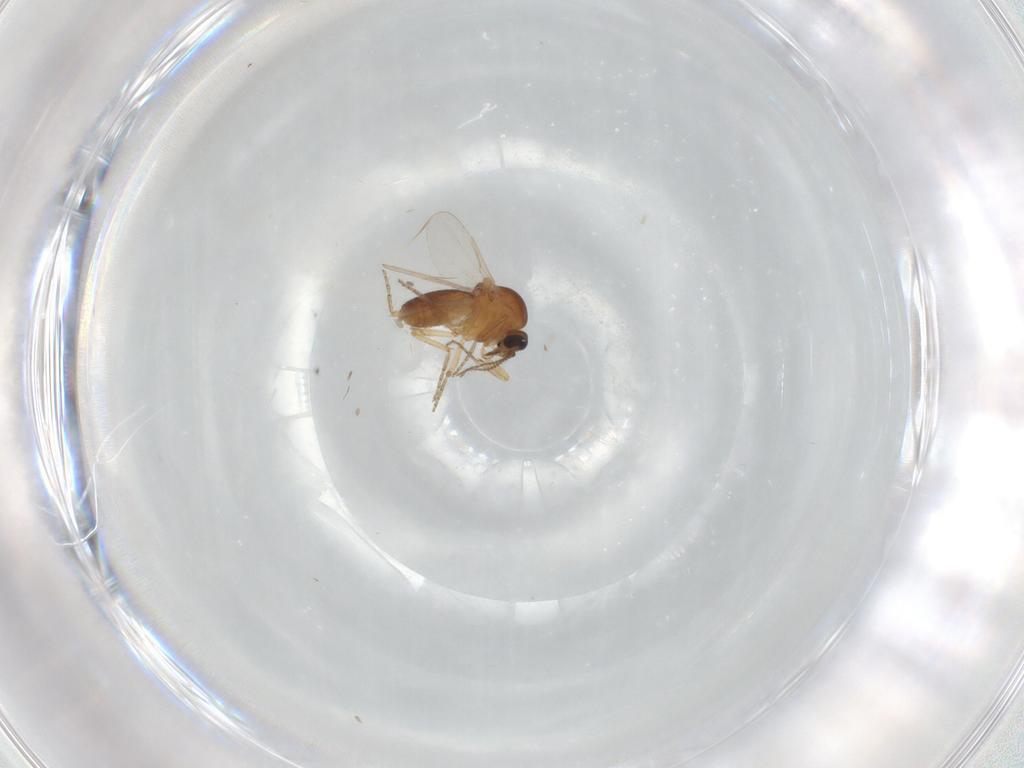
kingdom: Animalia
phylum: Arthropoda
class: Insecta
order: Diptera
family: Ceratopogonidae
